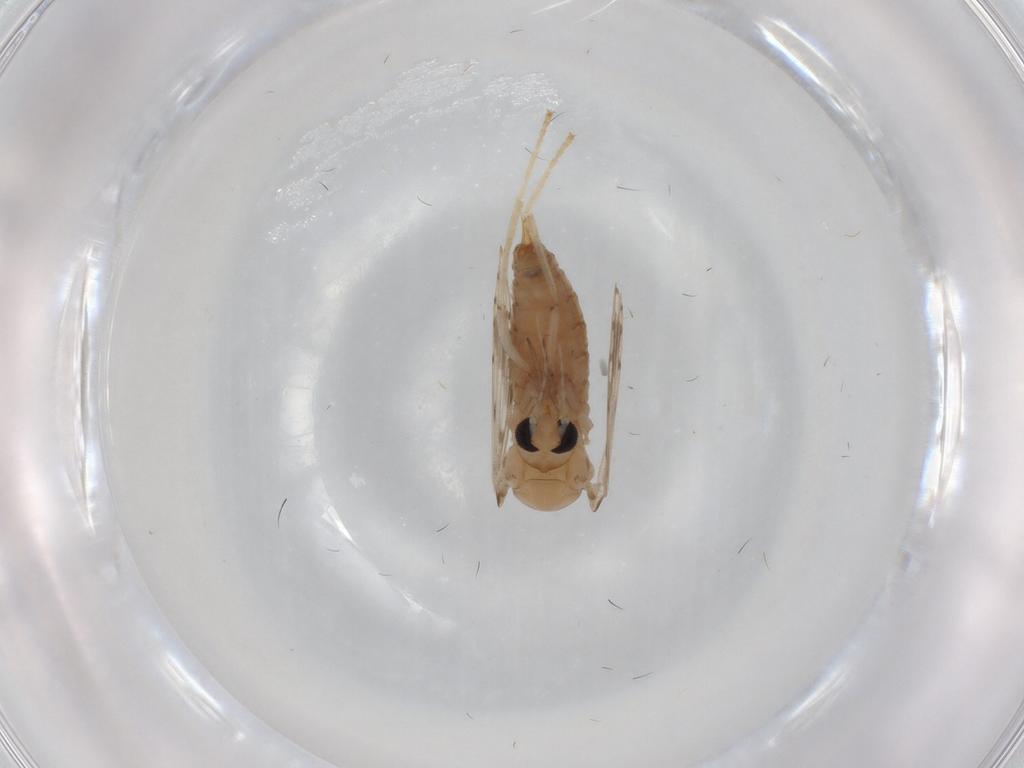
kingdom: Animalia
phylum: Arthropoda
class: Insecta
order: Diptera
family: Psychodidae
